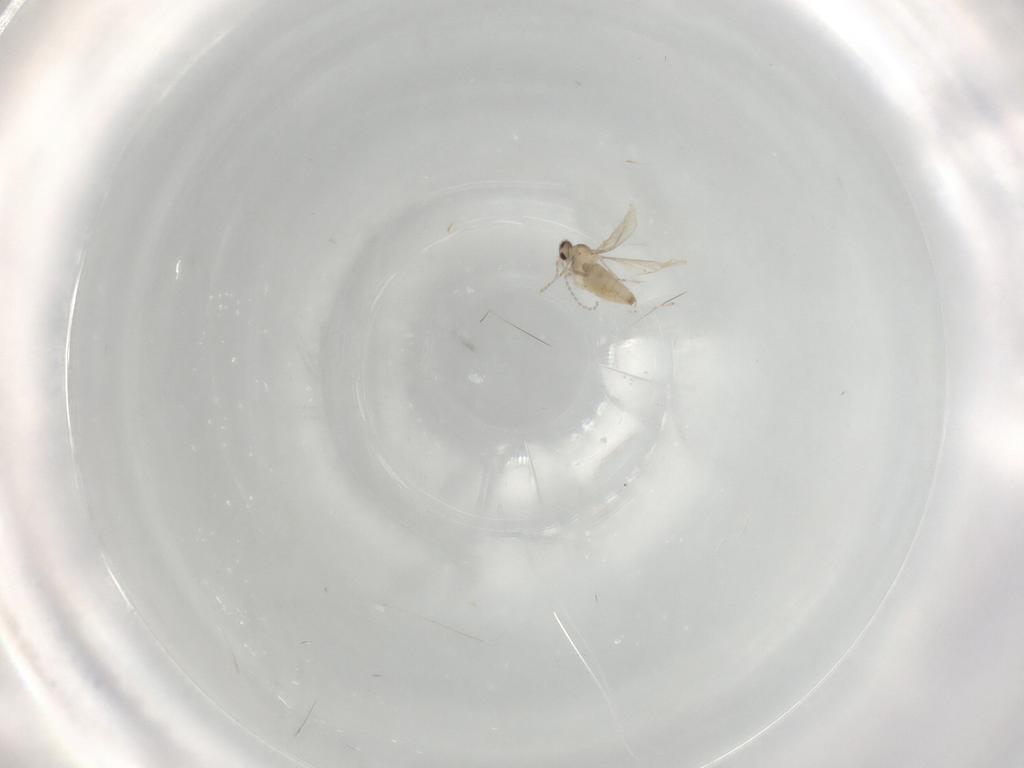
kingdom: Animalia
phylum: Arthropoda
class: Insecta
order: Diptera
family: Cecidomyiidae
